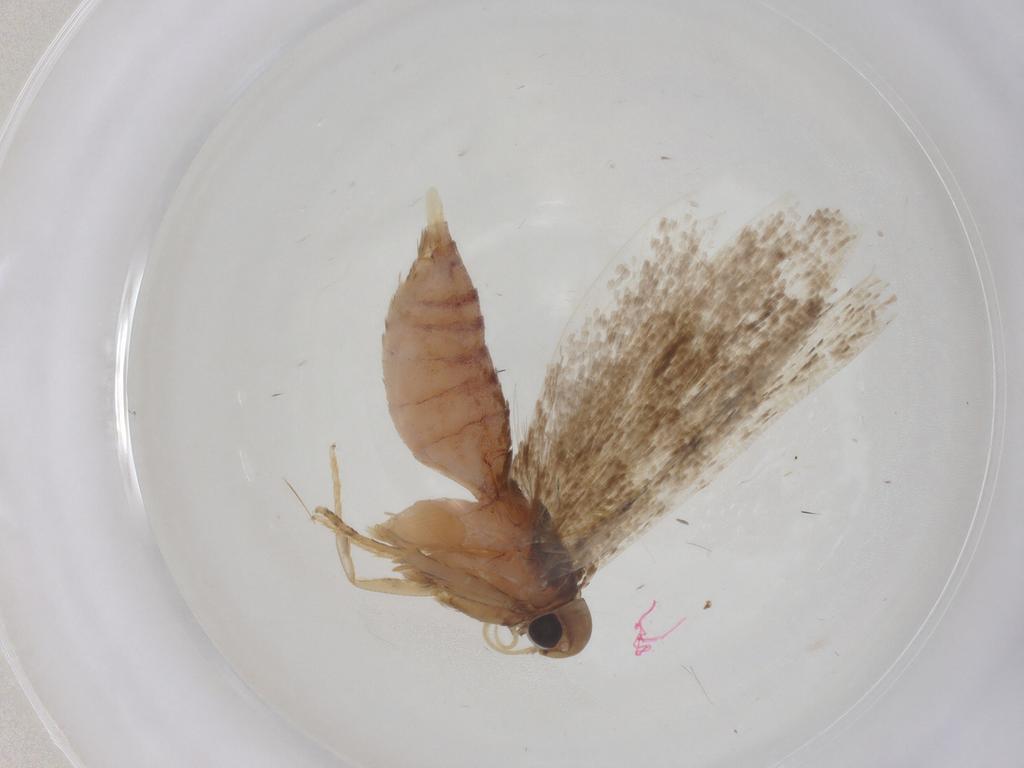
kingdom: Animalia
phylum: Arthropoda
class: Insecta
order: Lepidoptera
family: Gelechiidae
